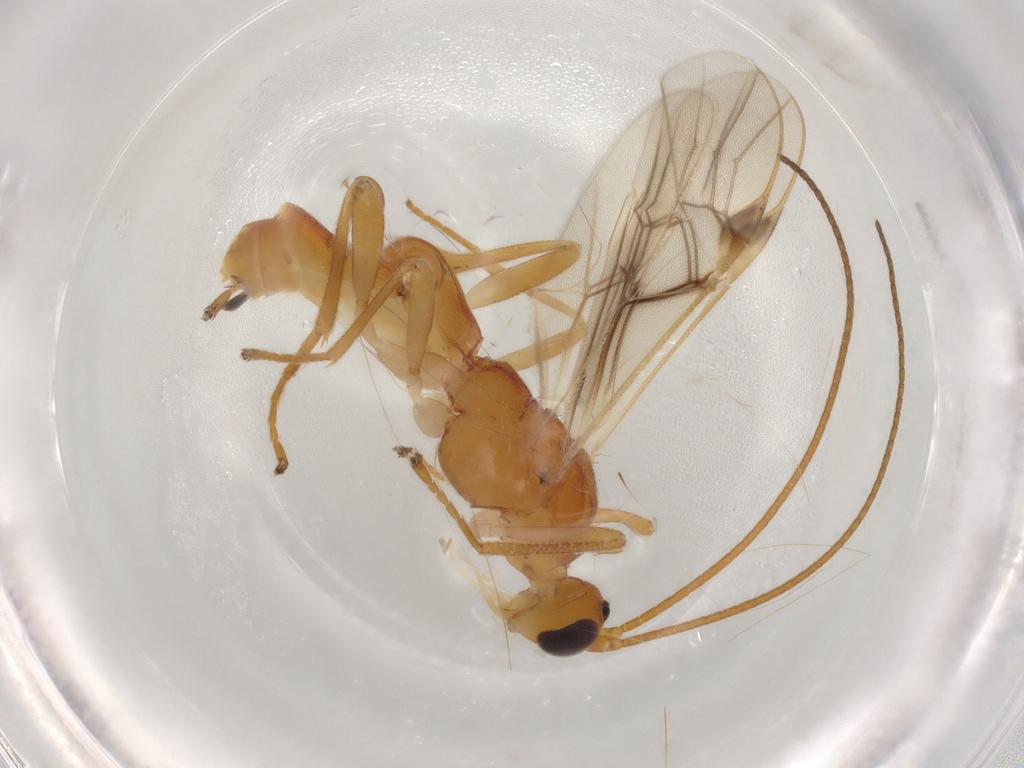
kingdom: Animalia
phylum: Arthropoda
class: Insecta
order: Hymenoptera
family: Braconidae
